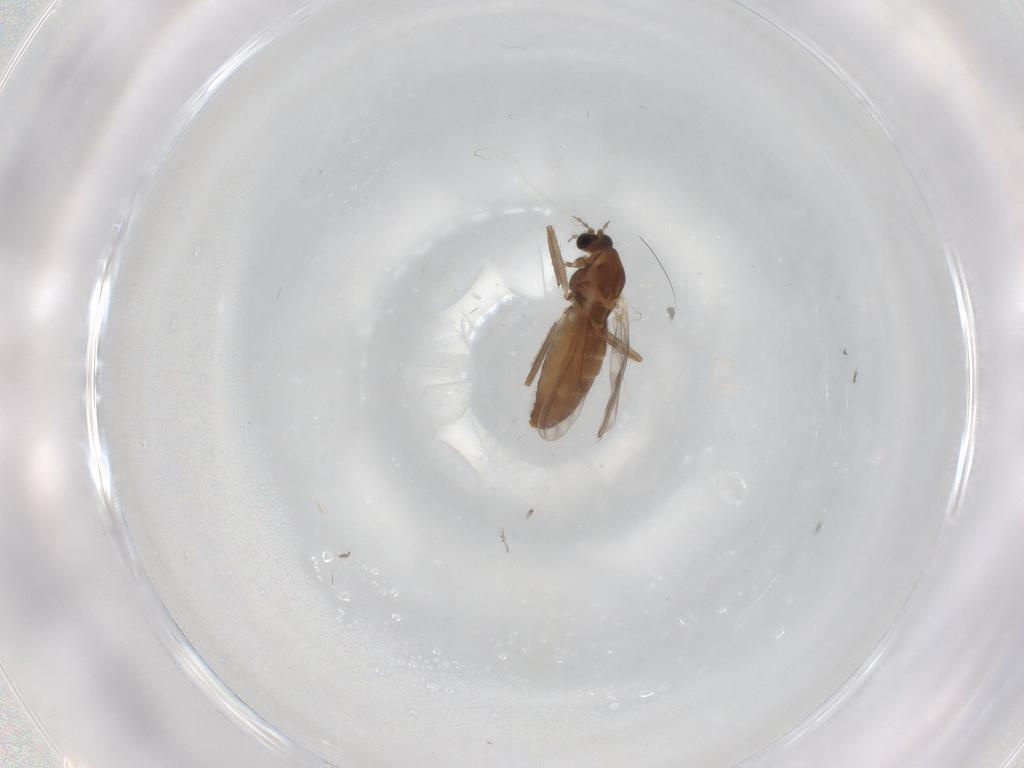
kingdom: Animalia
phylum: Arthropoda
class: Insecta
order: Diptera
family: Chironomidae
